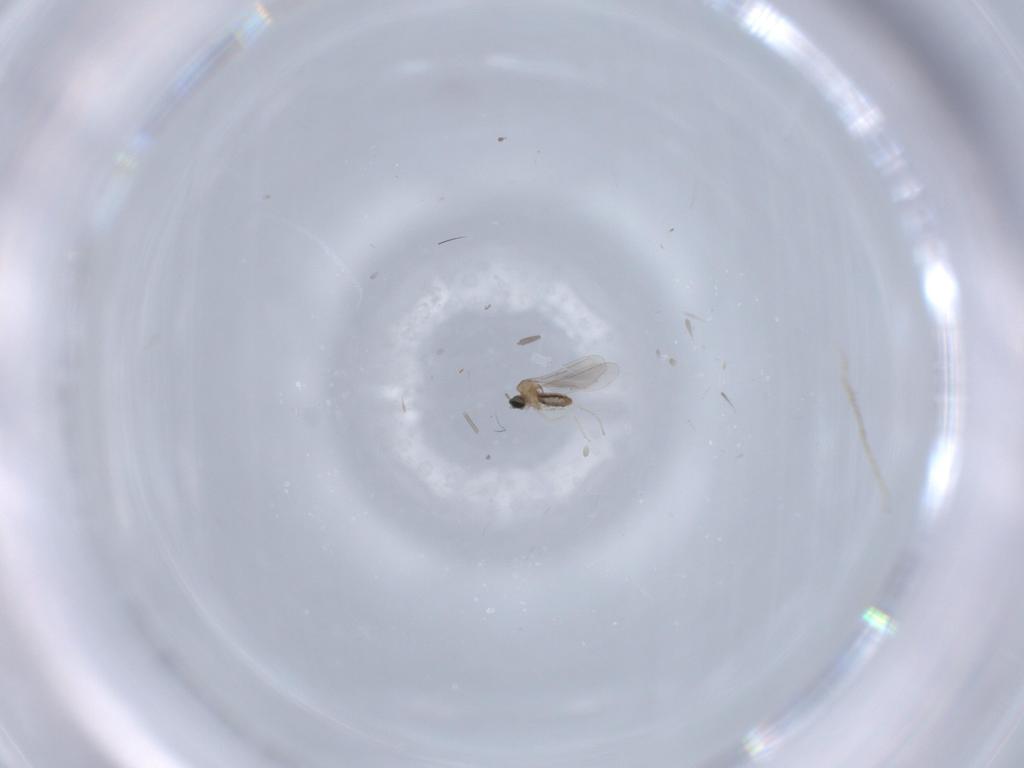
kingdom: Animalia
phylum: Arthropoda
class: Insecta
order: Diptera
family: Cecidomyiidae
